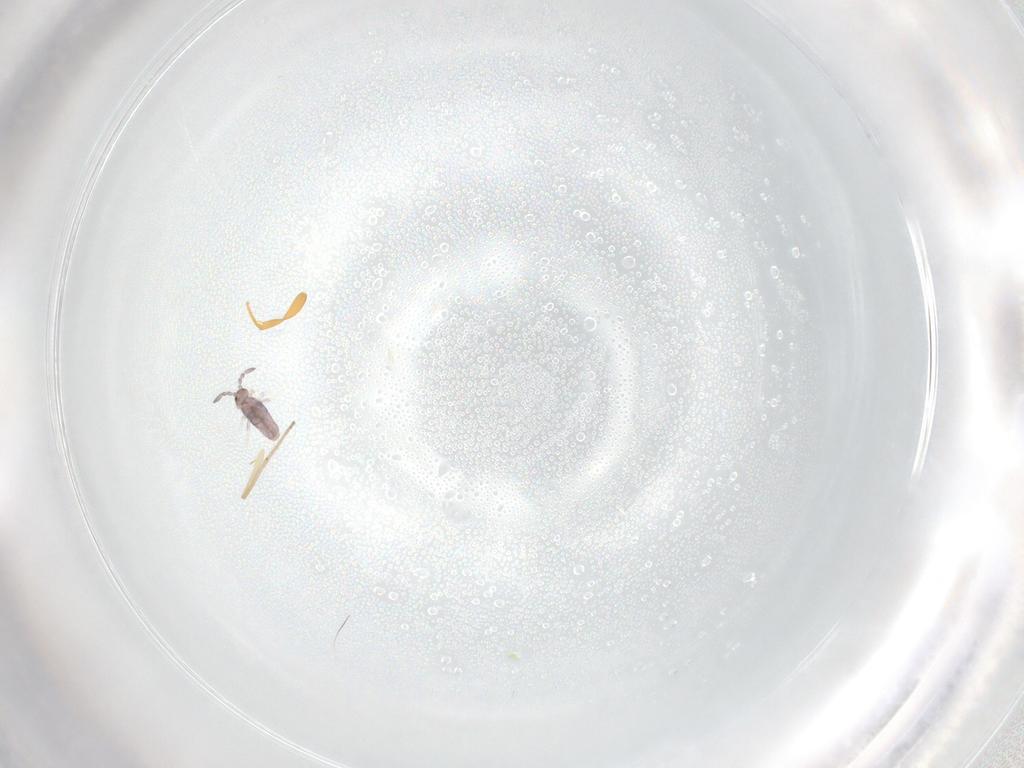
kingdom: Animalia
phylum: Arthropoda
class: Collembola
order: Entomobryomorpha
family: Entomobryidae
